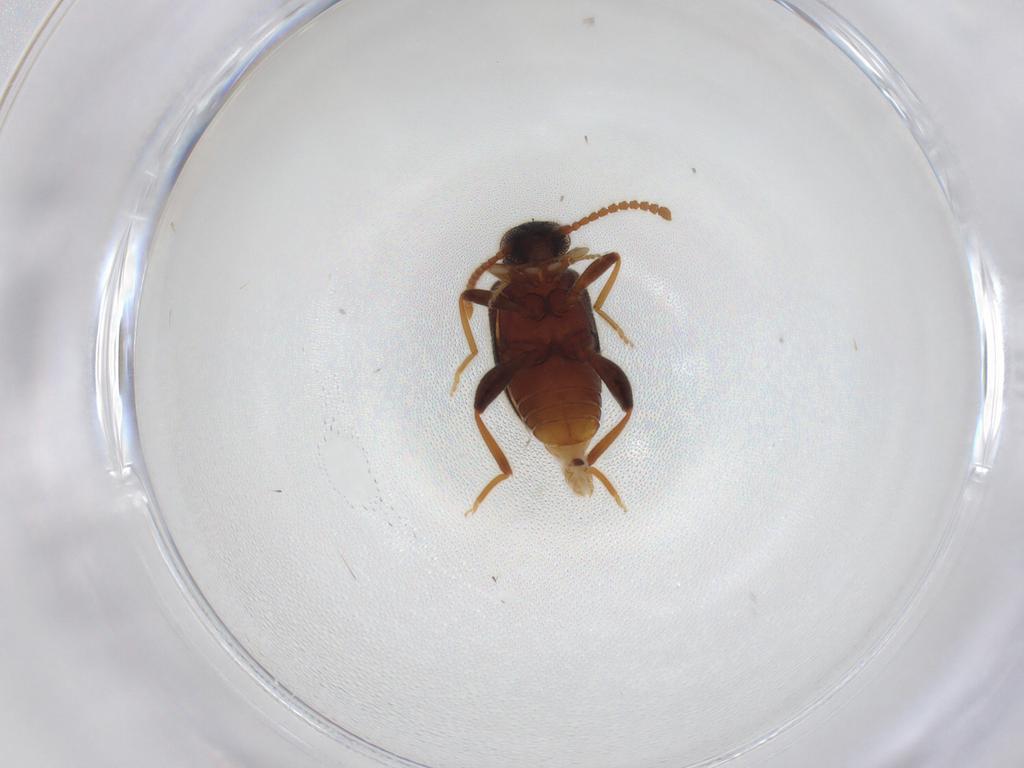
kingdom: Animalia
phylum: Arthropoda
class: Insecta
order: Coleoptera
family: Aderidae
